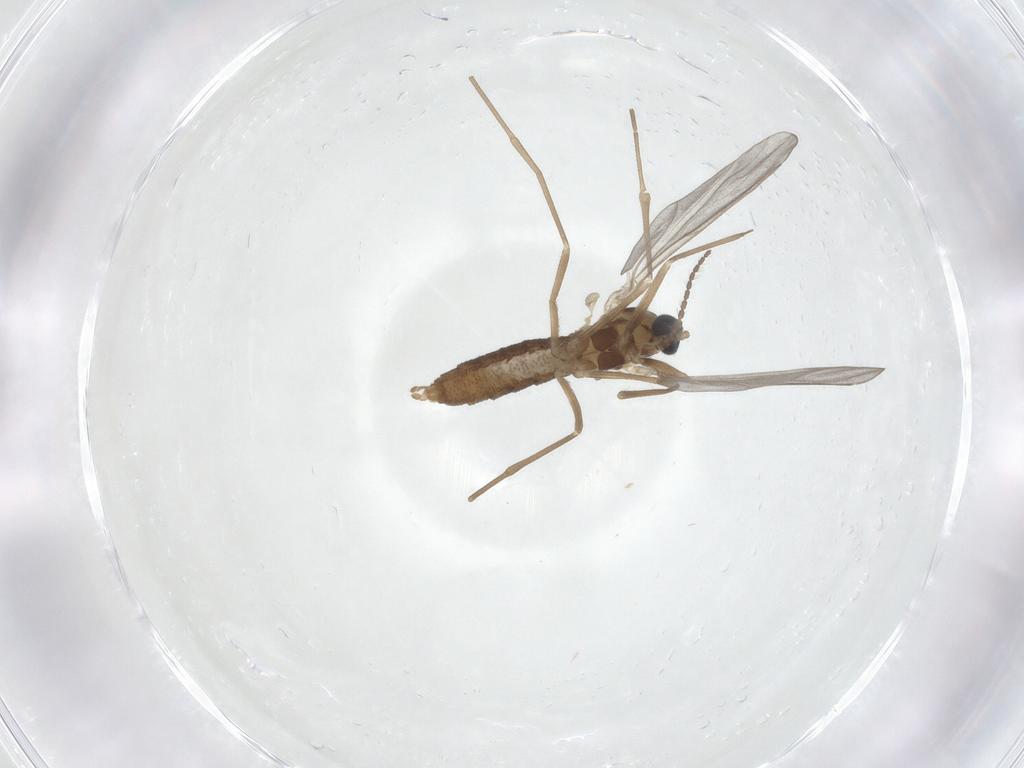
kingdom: Animalia
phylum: Arthropoda
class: Insecta
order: Diptera
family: Cecidomyiidae
